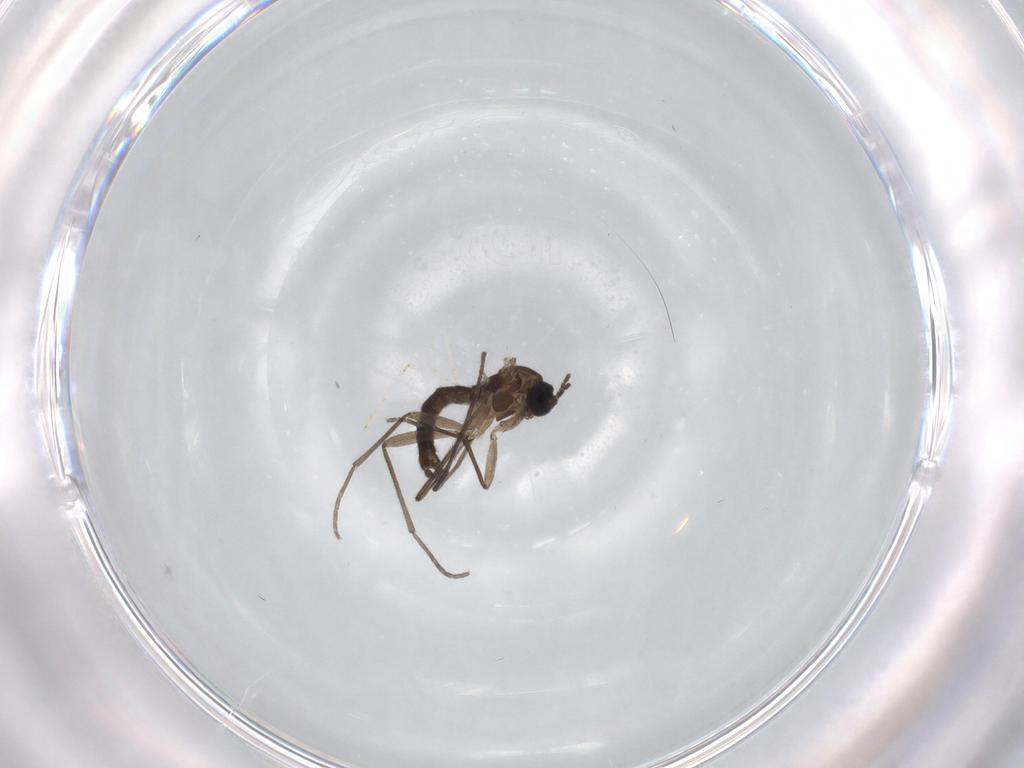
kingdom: Animalia
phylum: Arthropoda
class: Insecta
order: Diptera
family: Sciaridae
